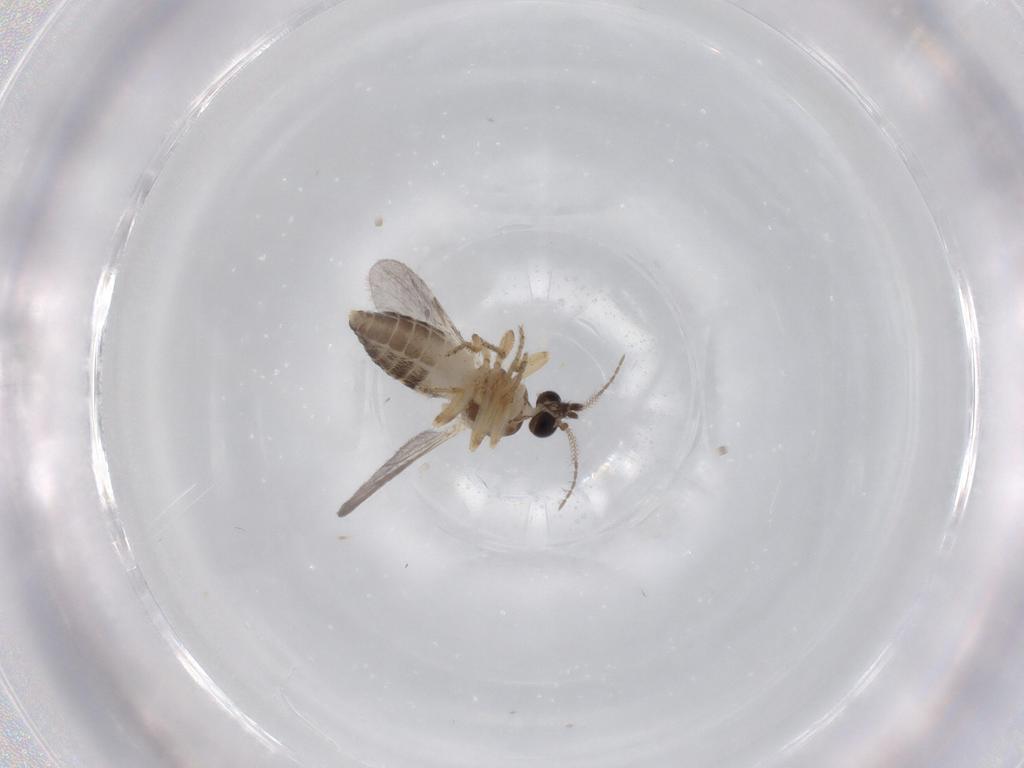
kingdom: Animalia
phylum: Arthropoda
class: Insecta
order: Diptera
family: Ceratopogonidae
